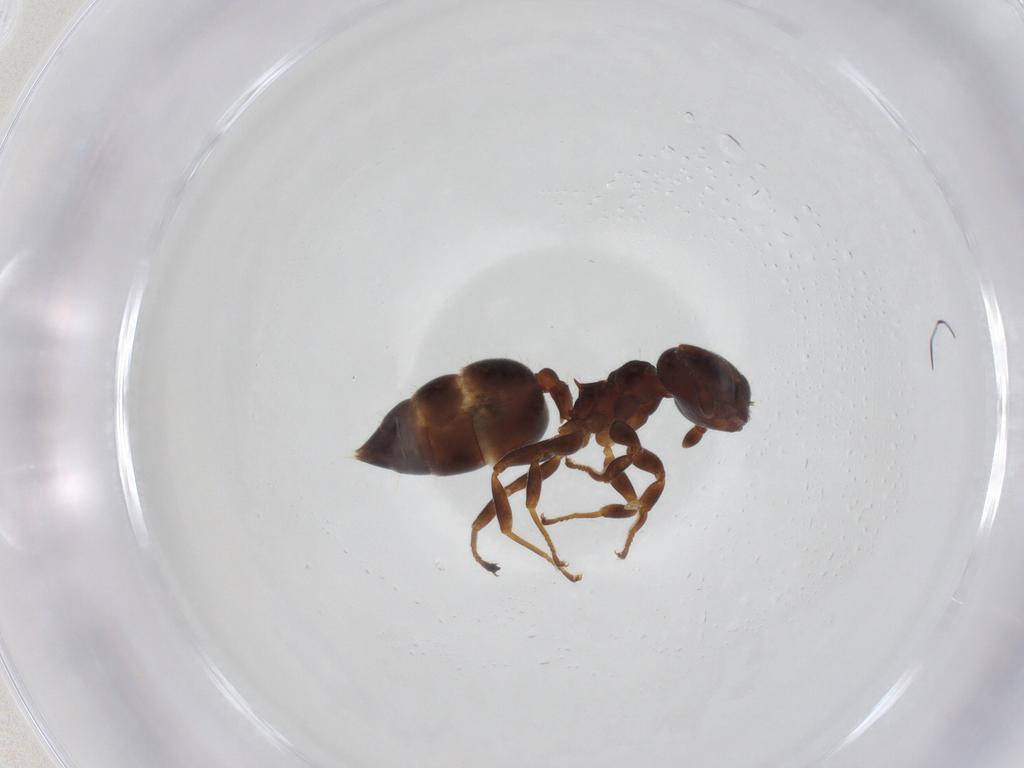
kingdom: Animalia
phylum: Arthropoda
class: Insecta
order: Hymenoptera
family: Formicidae
